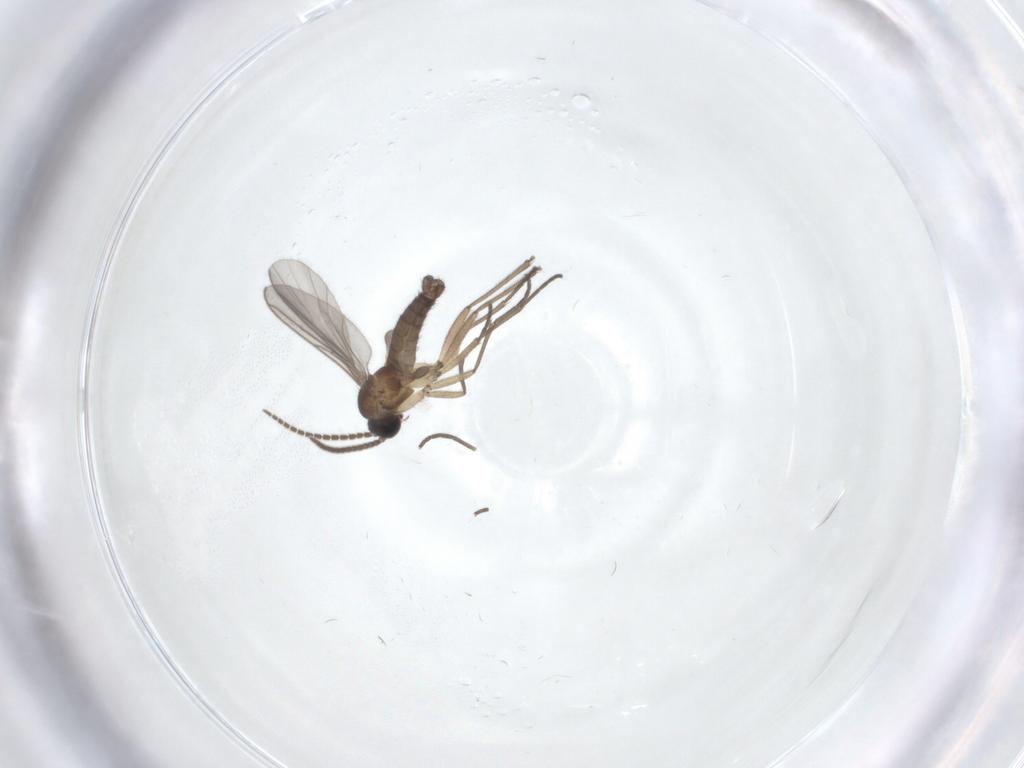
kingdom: Animalia
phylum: Arthropoda
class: Insecta
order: Diptera
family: Sciaridae
